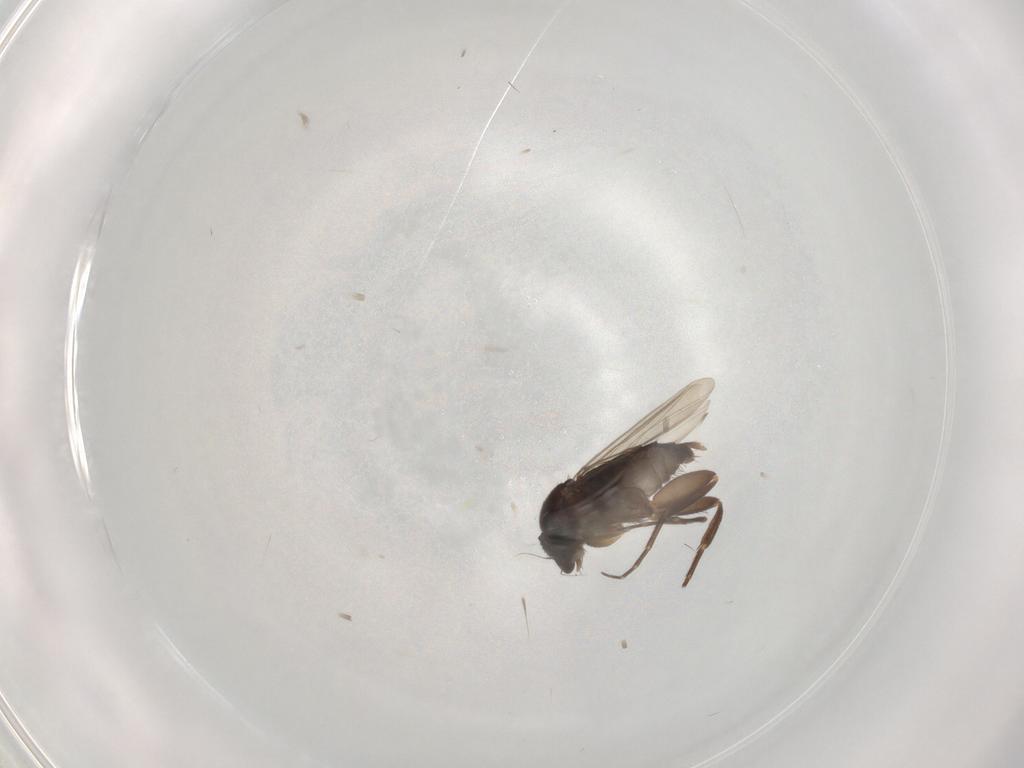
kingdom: Animalia
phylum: Arthropoda
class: Insecta
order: Diptera
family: Phoridae
